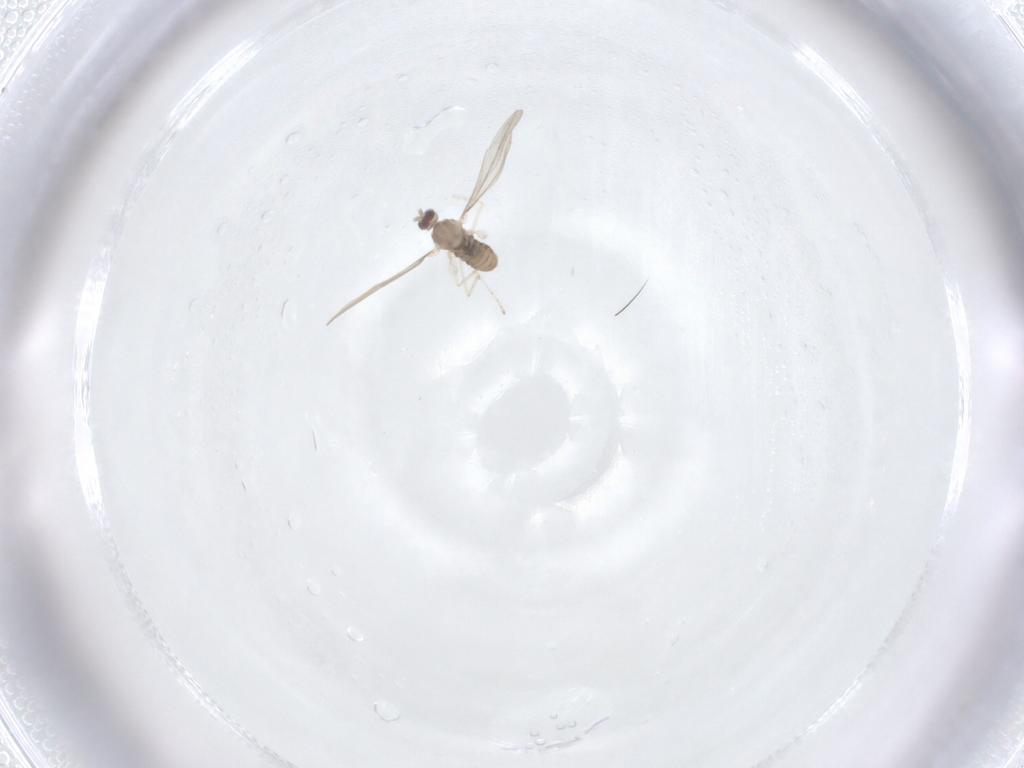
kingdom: Animalia
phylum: Arthropoda
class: Insecta
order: Diptera
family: Cecidomyiidae
